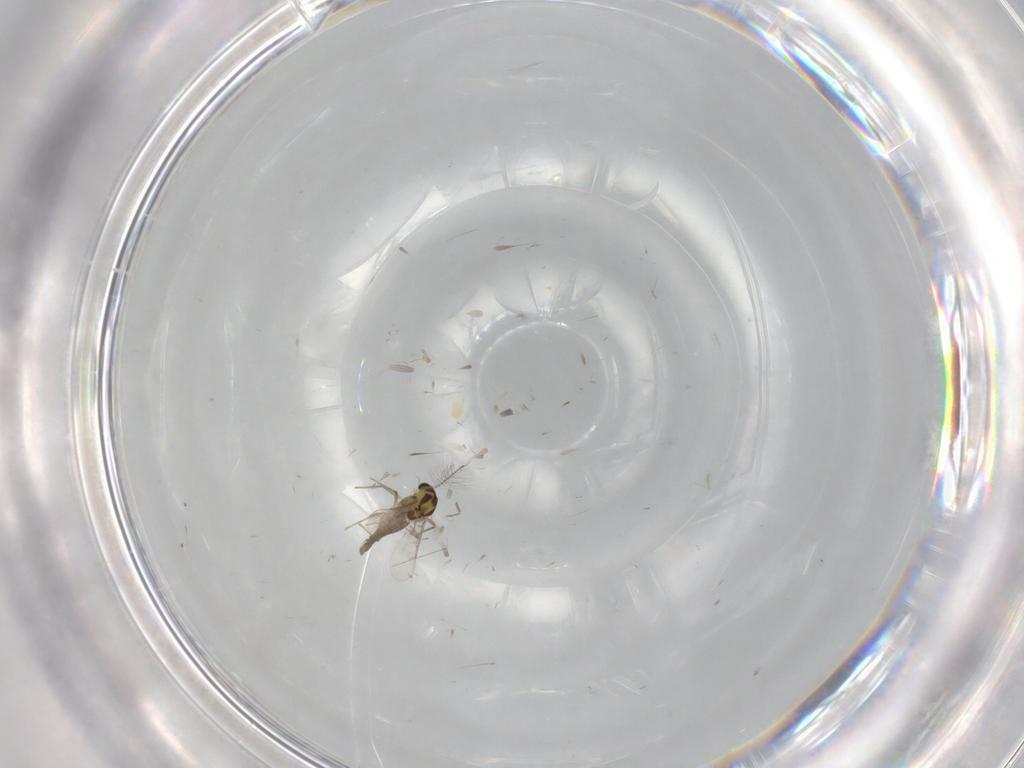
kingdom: Animalia
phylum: Arthropoda
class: Insecta
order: Diptera
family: Chironomidae
